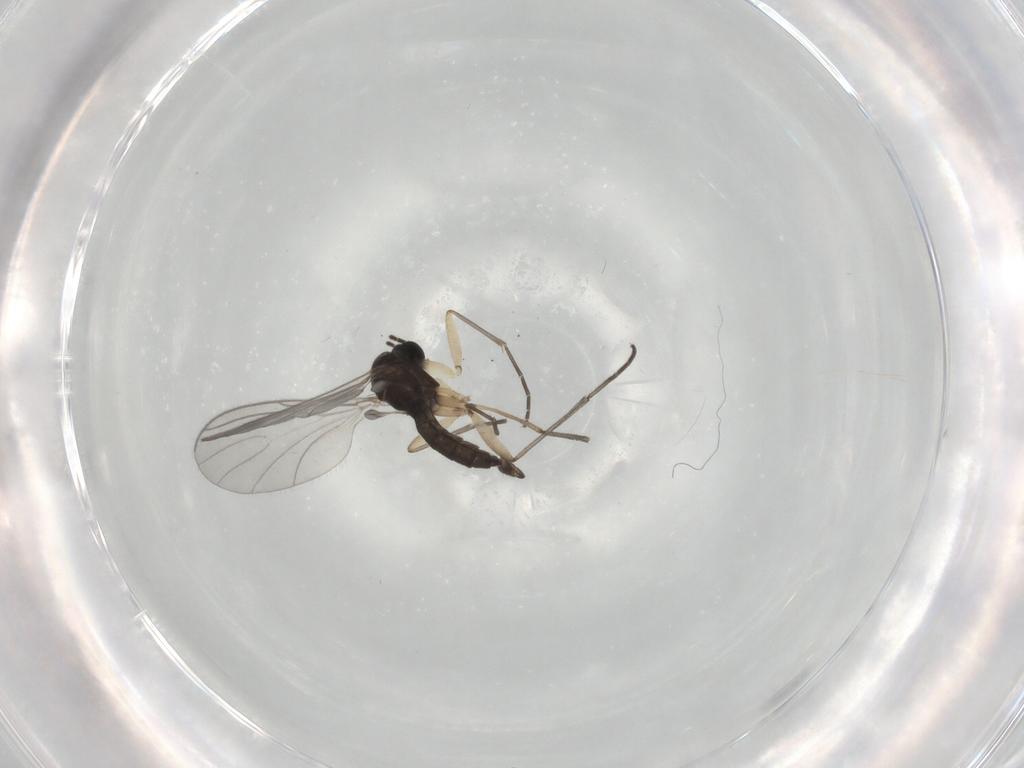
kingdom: Animalia
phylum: Arthropoda
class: Insecta
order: Diptera
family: Sciaridae
